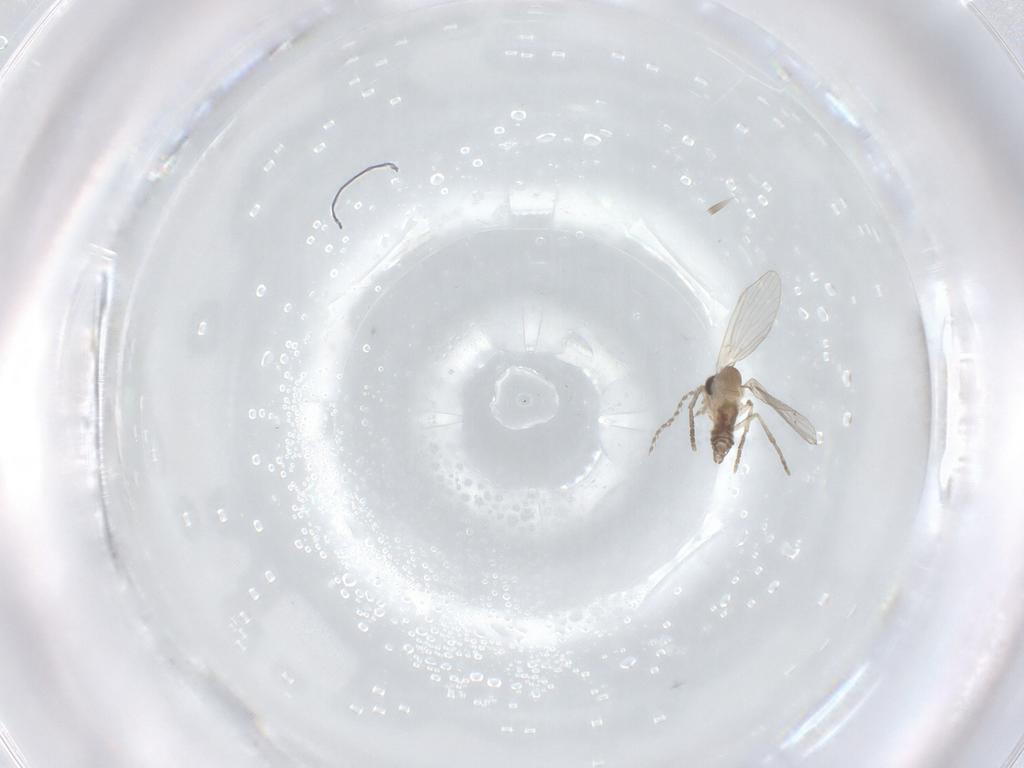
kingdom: Animalia
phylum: Arthropoda
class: Insecta
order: Diptera
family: Psychodidae
